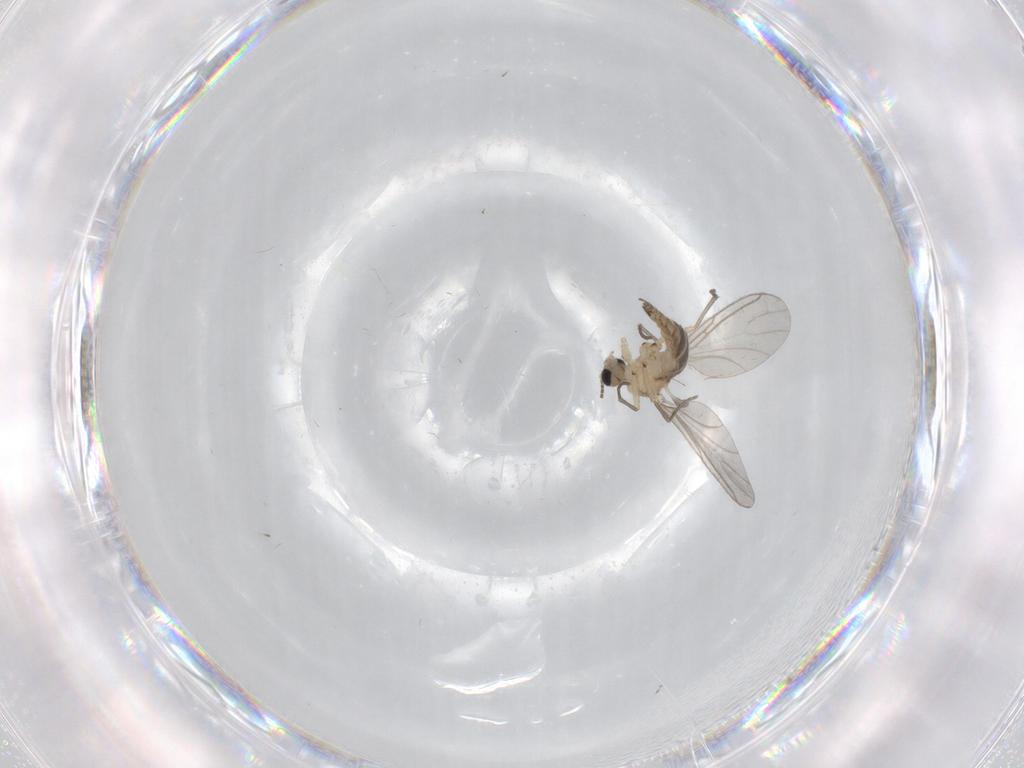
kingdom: Animalia
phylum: Arthropoda
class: Insecta
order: Diptera
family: Sciaridae
